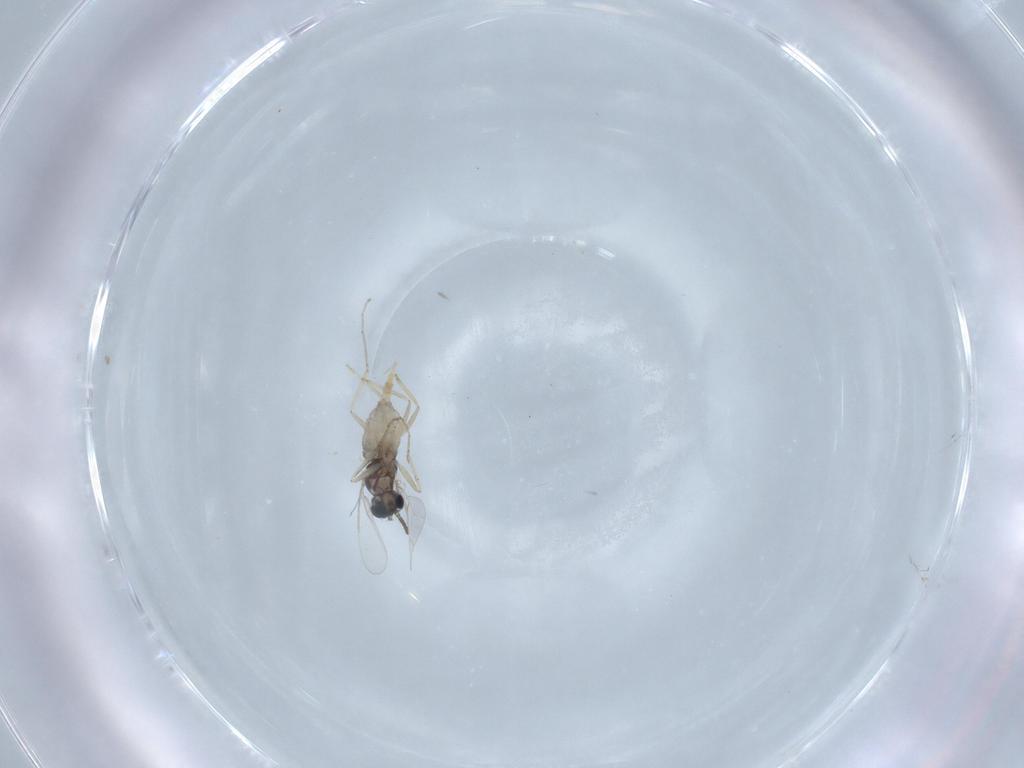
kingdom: Animalia
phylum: Arthropoda
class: Insecta
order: Diptera
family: Cecidomyiidae
